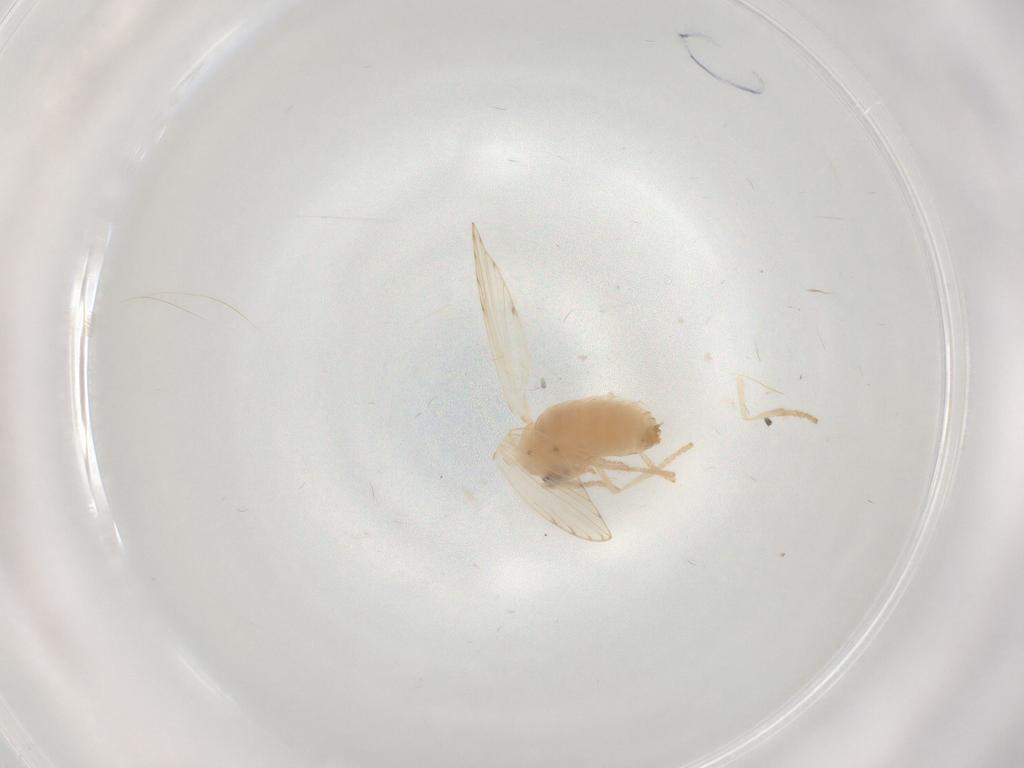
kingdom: Animalia
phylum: Arthropoda
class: Insecta
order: Diptera
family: Psychodidae
